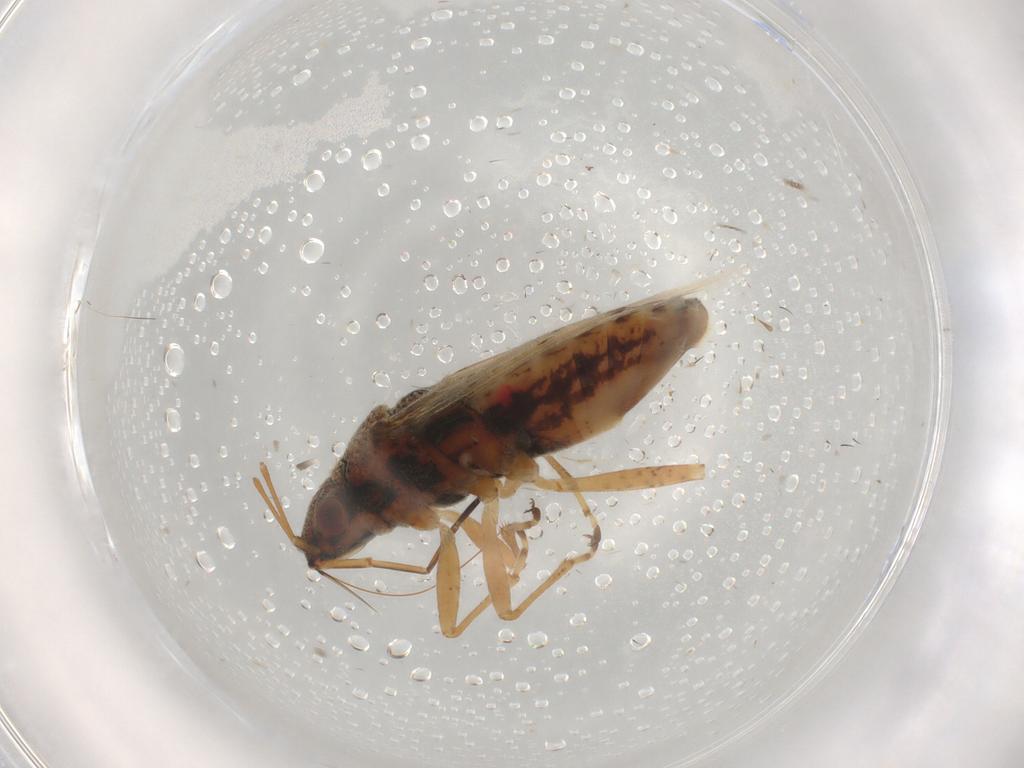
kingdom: Animalia
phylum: Arthropoda
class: Insecta
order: Hemiptera
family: Lygaeidae
